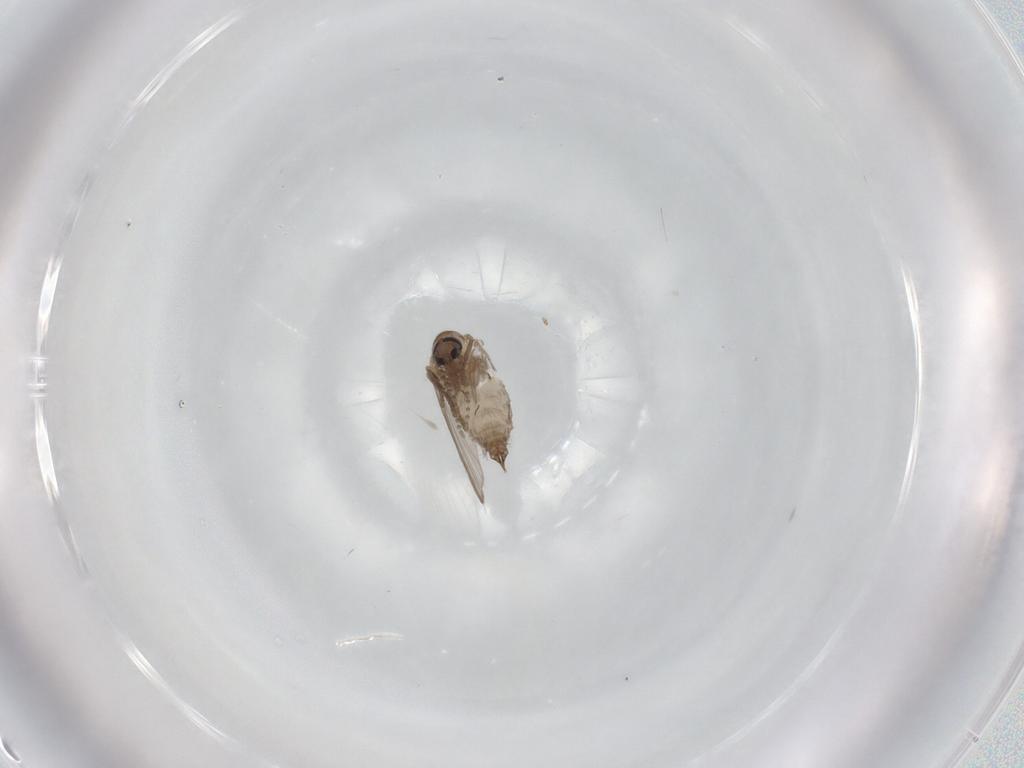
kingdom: Animalia
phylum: Arthropoda
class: Insecta
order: Diptera
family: Psychodidae
